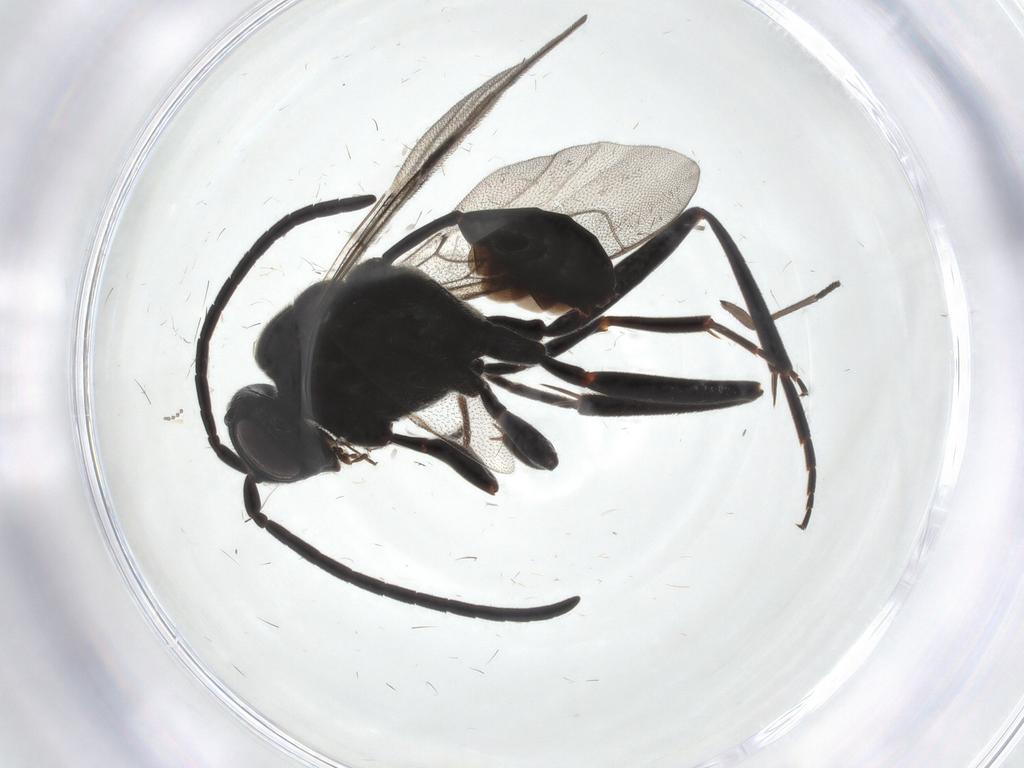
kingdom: Animalia
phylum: Arthropoda
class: Insecta
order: Hymenoptera
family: Evaniidae
